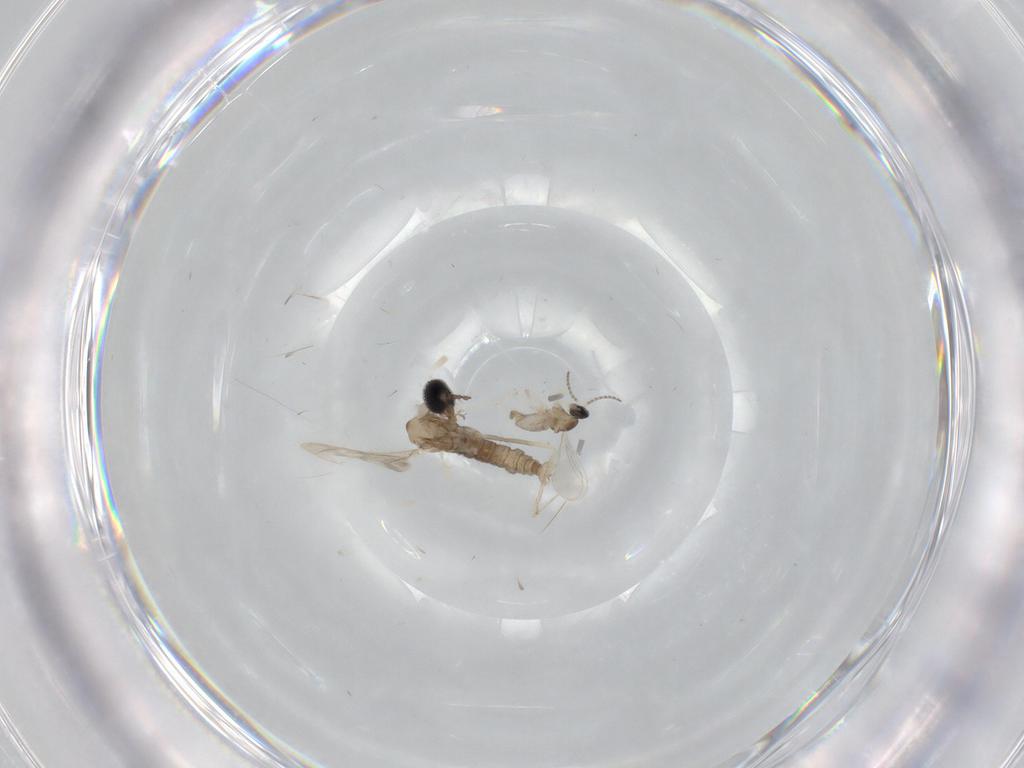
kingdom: Animalia
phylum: Arthropoda
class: Insecta
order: Diptera
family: Cecidomyiidae
